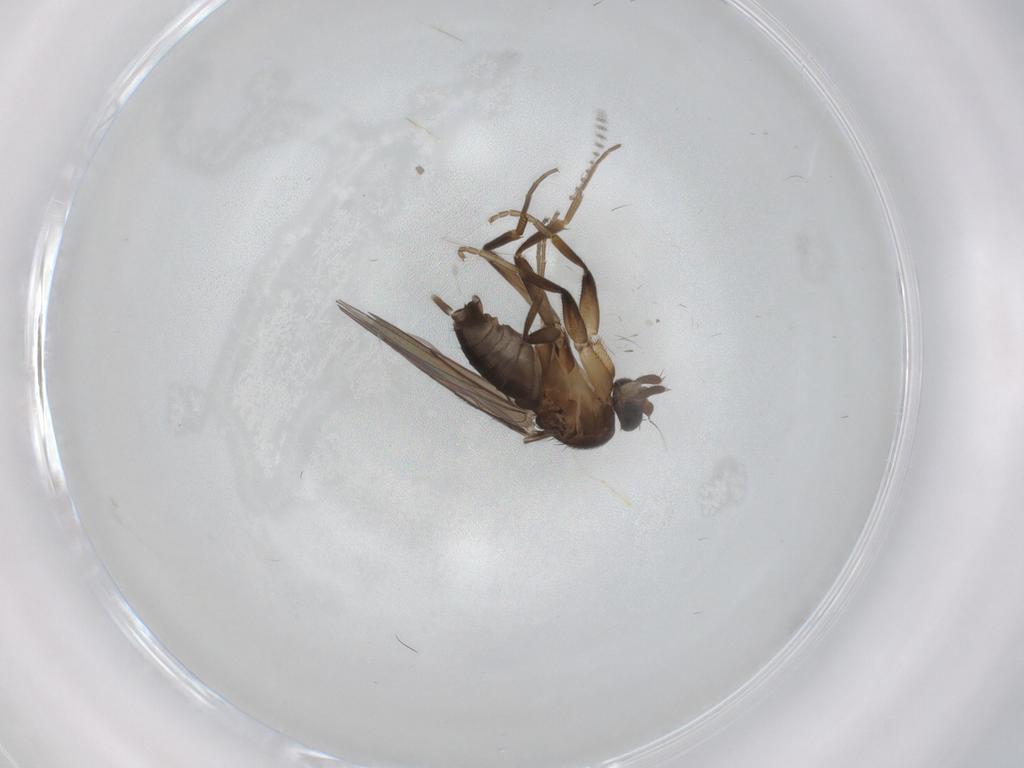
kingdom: Animalia
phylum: Arthropoda
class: Insecta
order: Diptera
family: Phoridae
